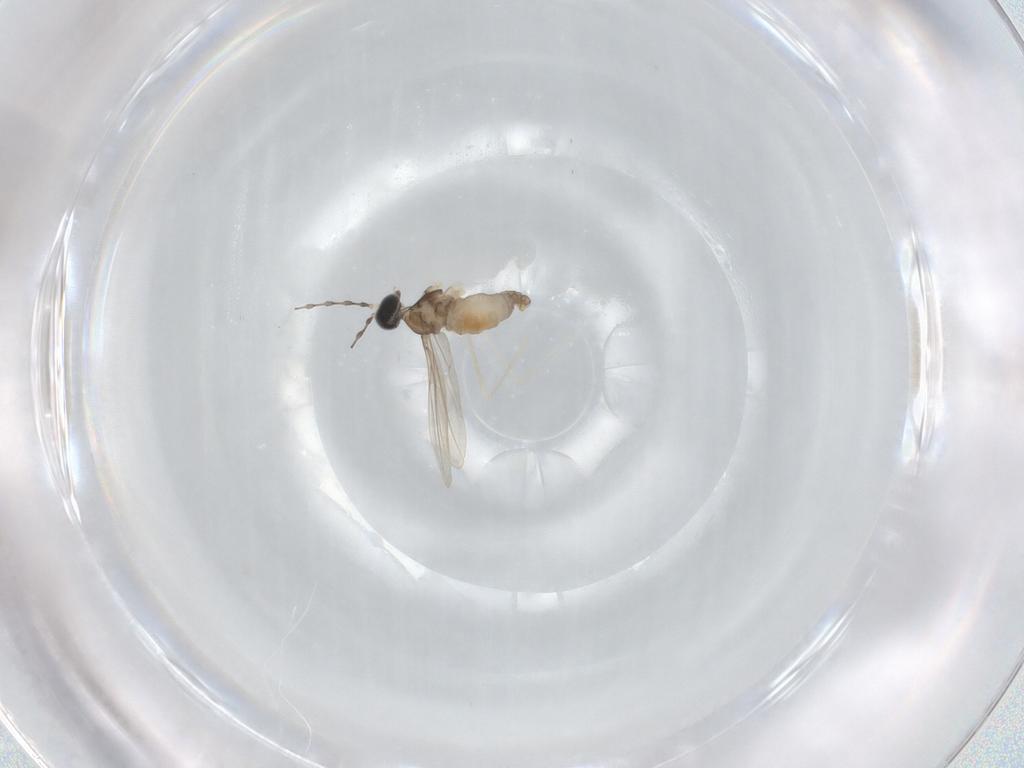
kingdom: Animalia
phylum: Arthropoda
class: Insecta
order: Diptera
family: Cecidomyiidae
